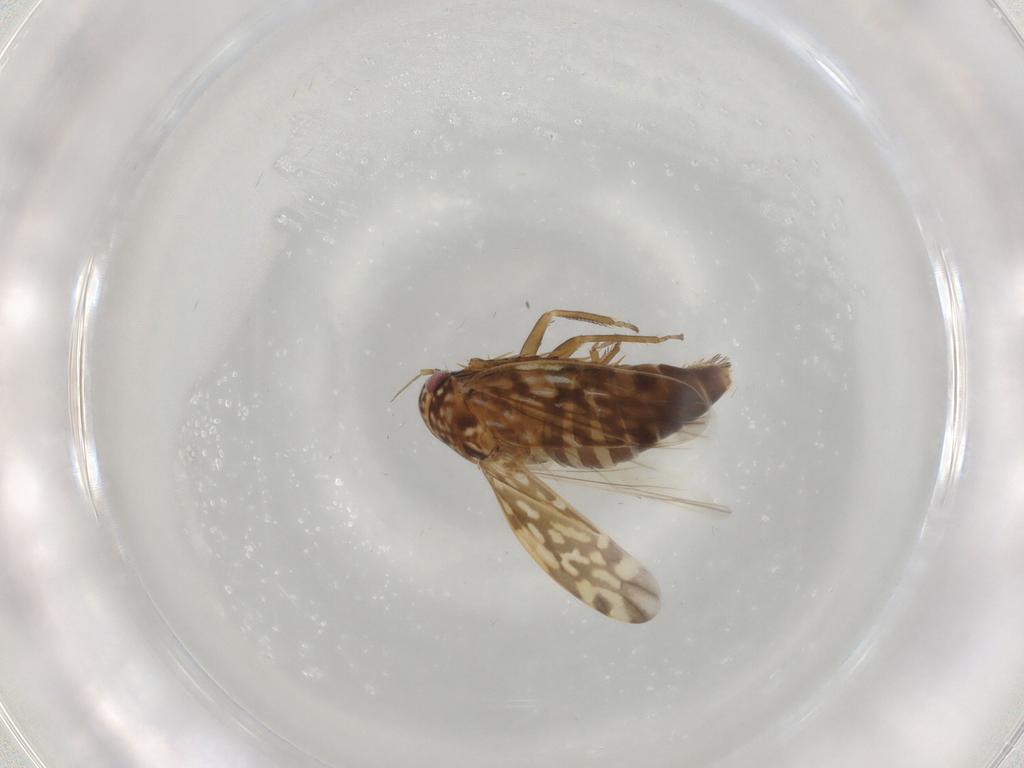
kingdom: Animalia
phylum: Arthropoda
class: Insecta
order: Hemiptera
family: Cicadellidae
